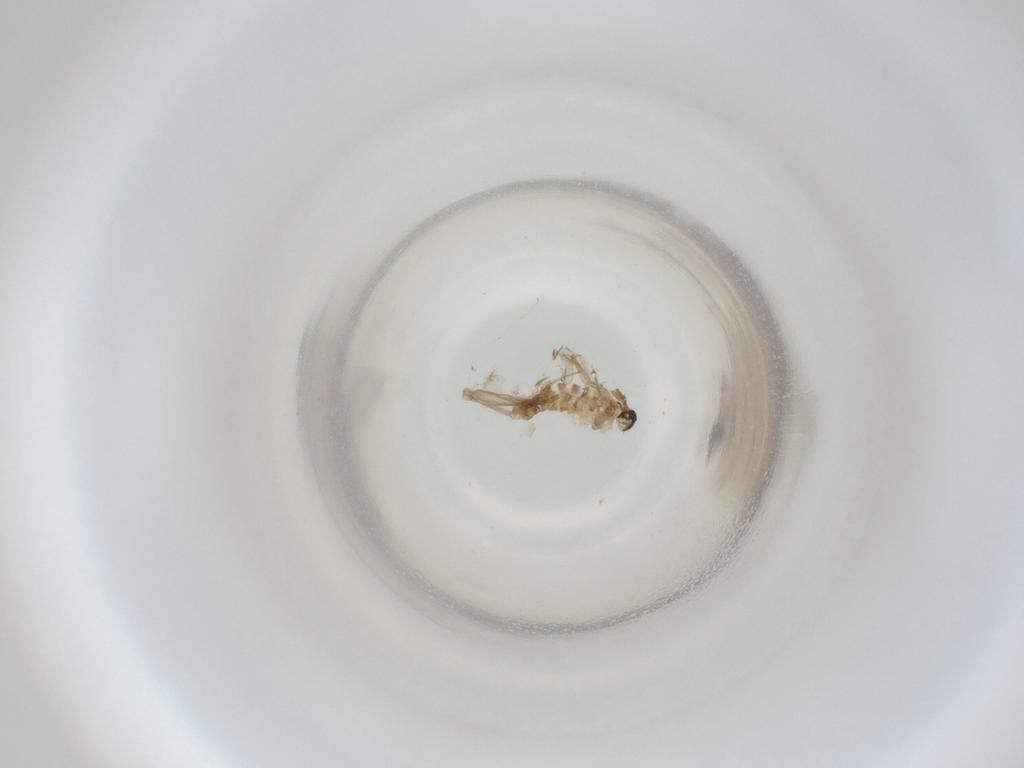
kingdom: Animalia
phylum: Arthropoda
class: Insecta
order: Diptera
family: Cecidomyiidae
